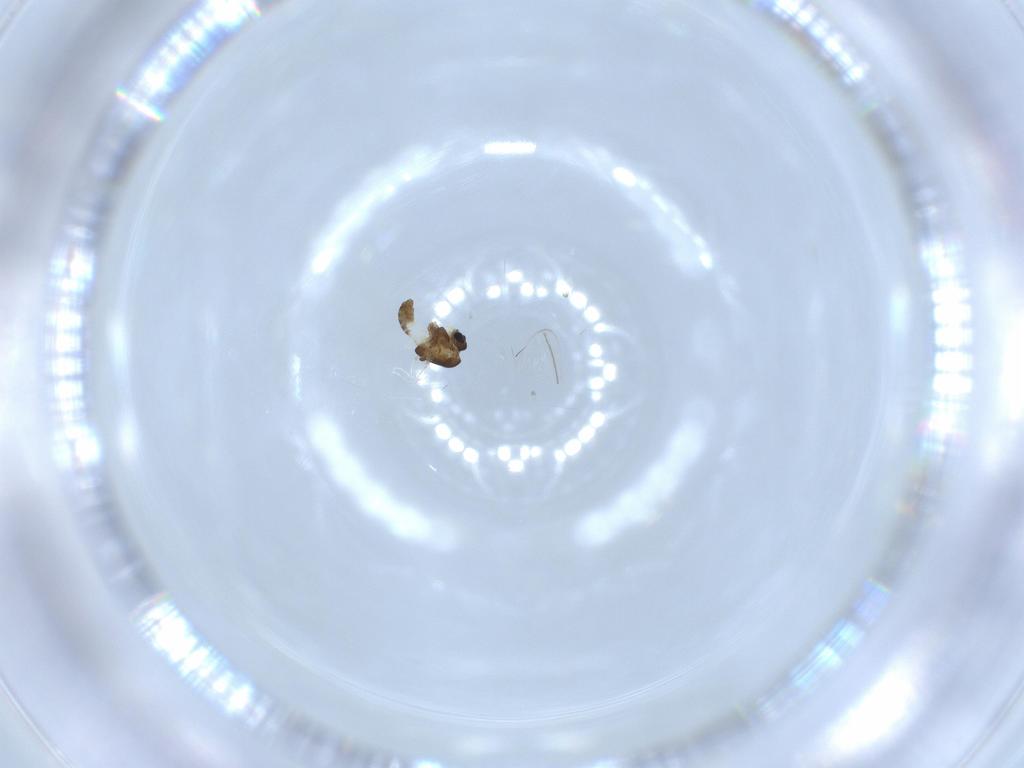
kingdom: Animalia
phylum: Arthropoda
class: Insecta
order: Diptera
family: Chironomidae
